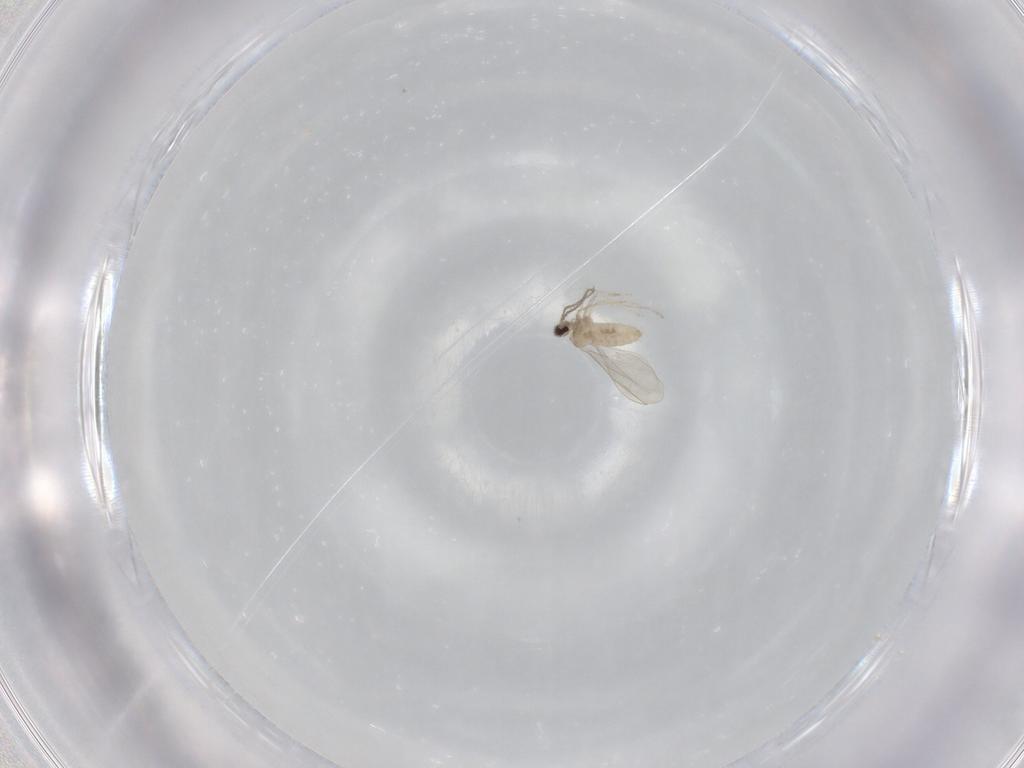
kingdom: Animalia
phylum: Arthropoda
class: Insecta
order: Diptera
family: Cecidomyiidae
